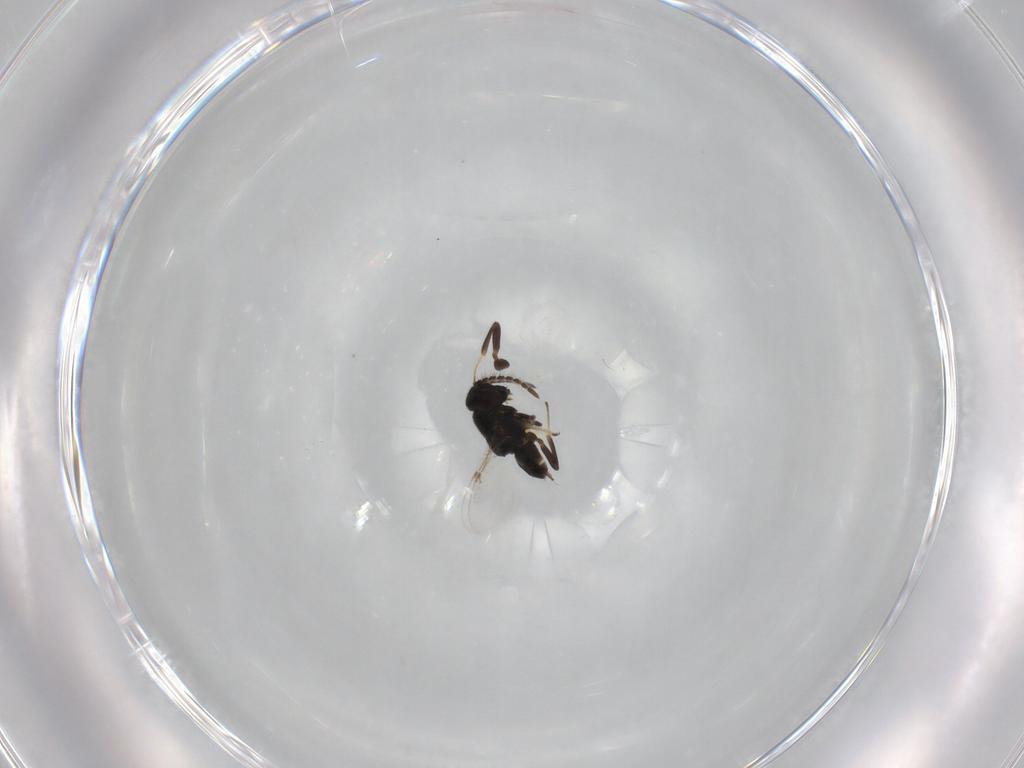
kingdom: Animalia
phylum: Arthropoda
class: Insecta
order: Hymenoptera
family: Encyrtidae
